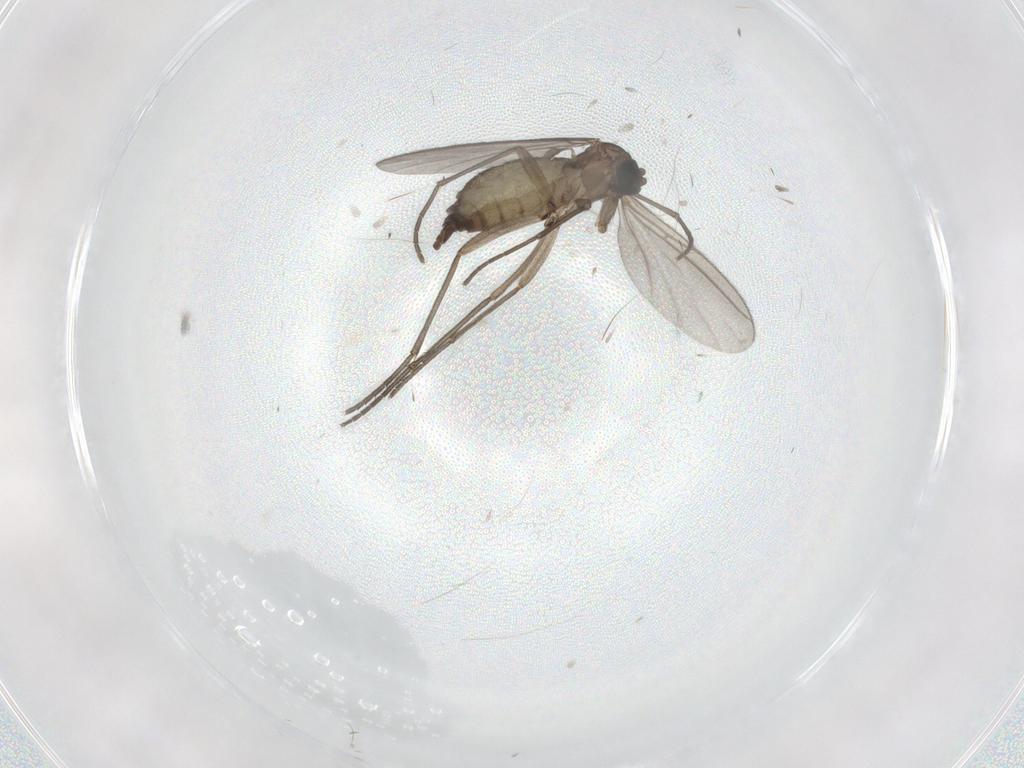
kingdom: Animalia
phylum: Arthropoda
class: Insecta
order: Diptera
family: Sciaridae
